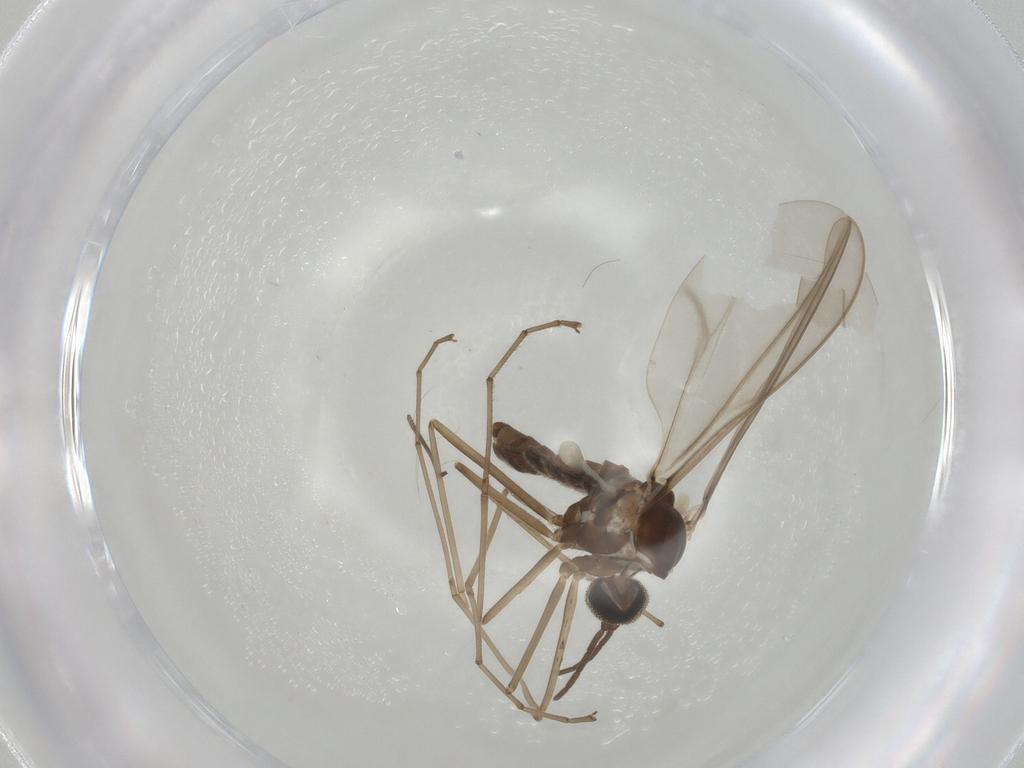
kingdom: Animalia
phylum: Arthropoda
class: Insecta
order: Diptera
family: Cecidomyiidae
